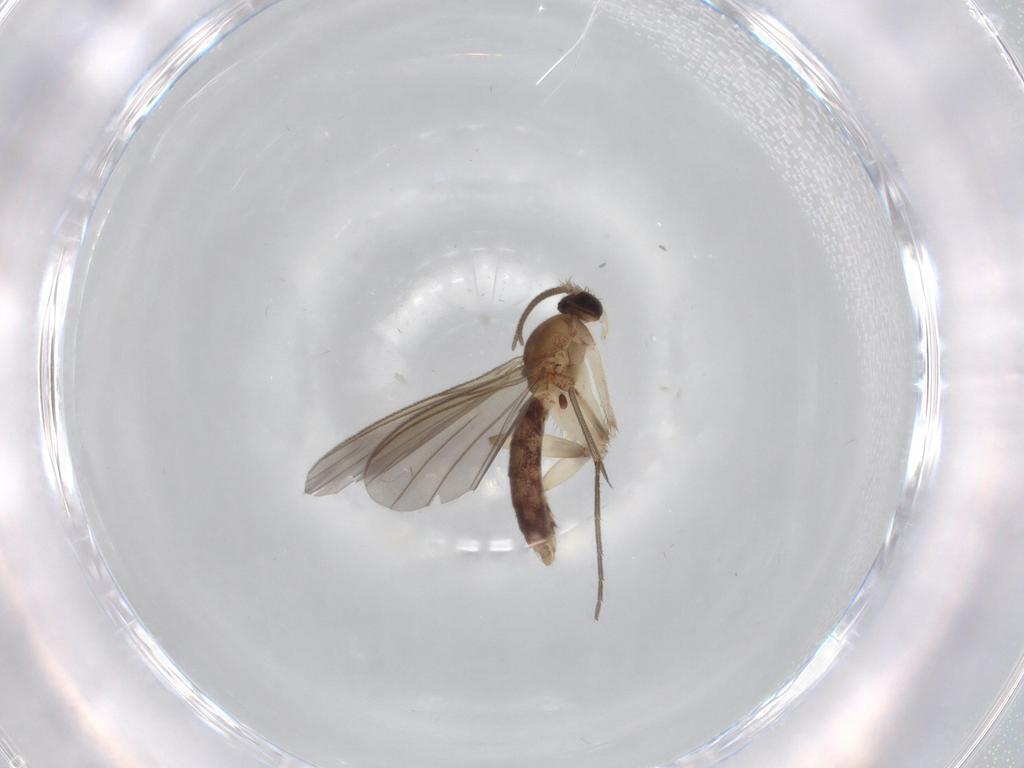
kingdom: Animalia
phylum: Arthropoda
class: Insecta
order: Diptera
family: Mycetophilidae
